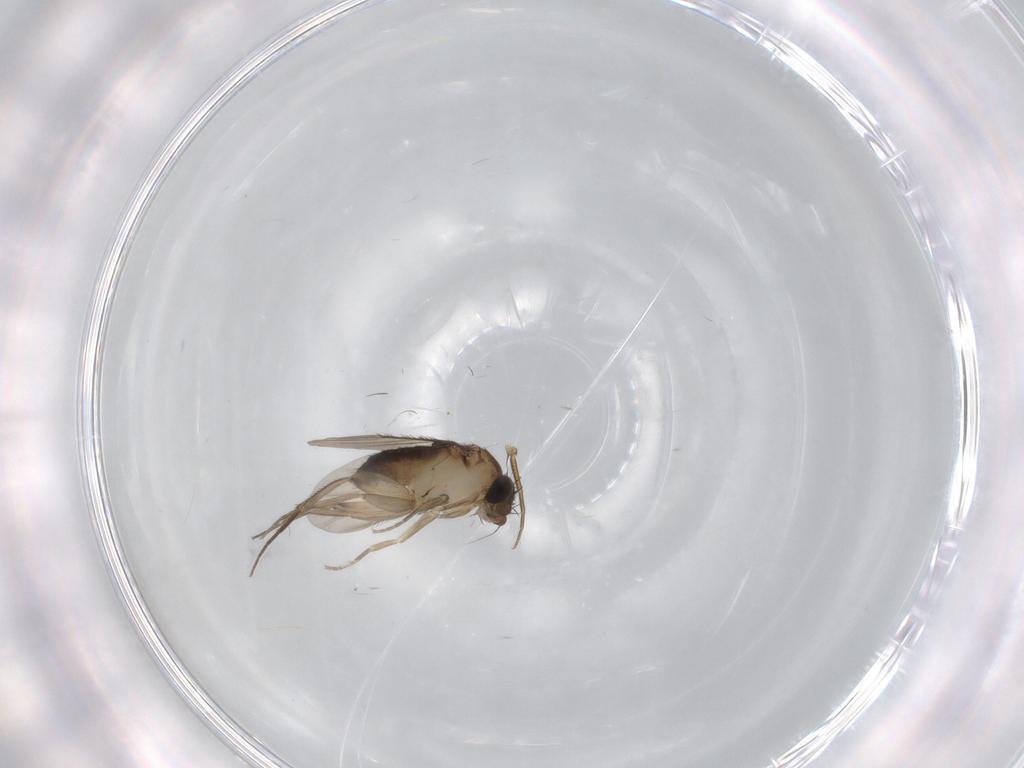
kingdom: Animalia
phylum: Arthropoda
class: Insecta
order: Diptera
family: Phoridae
